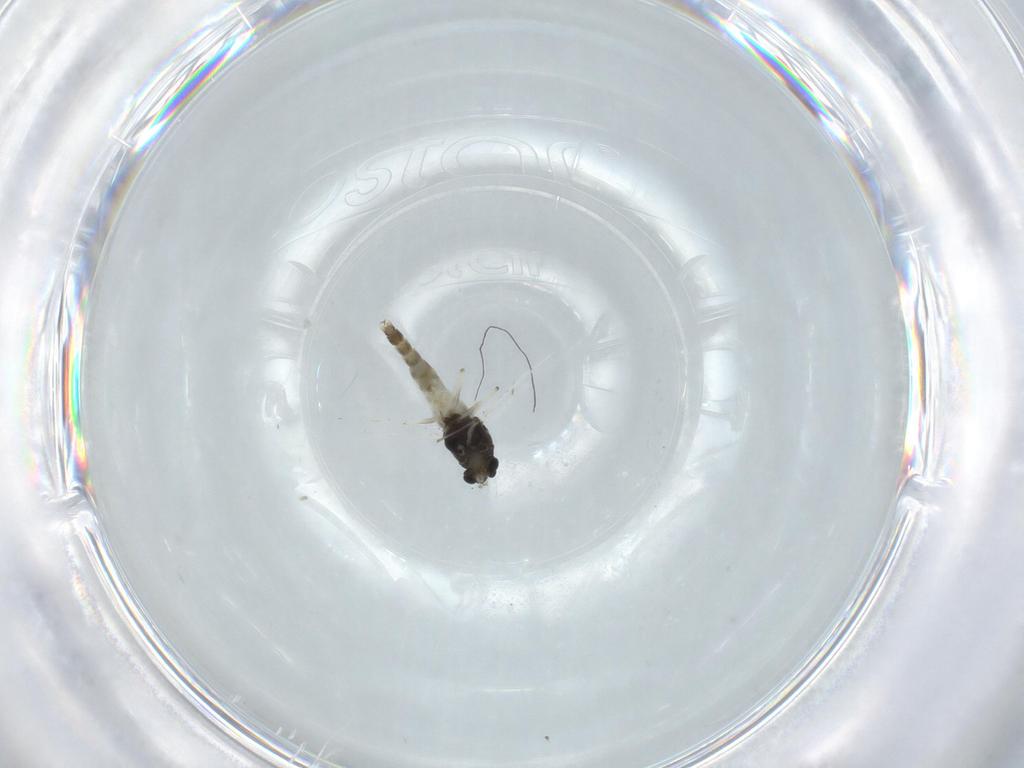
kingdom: Animalia
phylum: Arthropoda
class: Insecta
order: Diptera
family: Chironomidae
